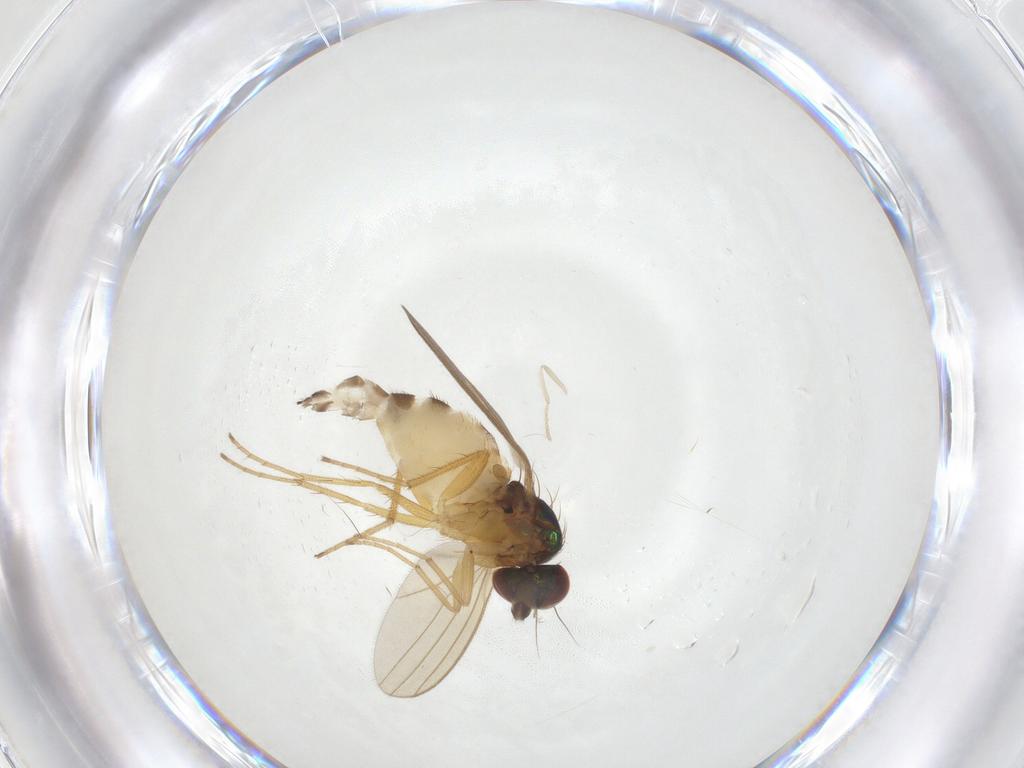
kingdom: Animalia
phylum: Arthropoda
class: Insecta
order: Diptera
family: Dolichopodidae
